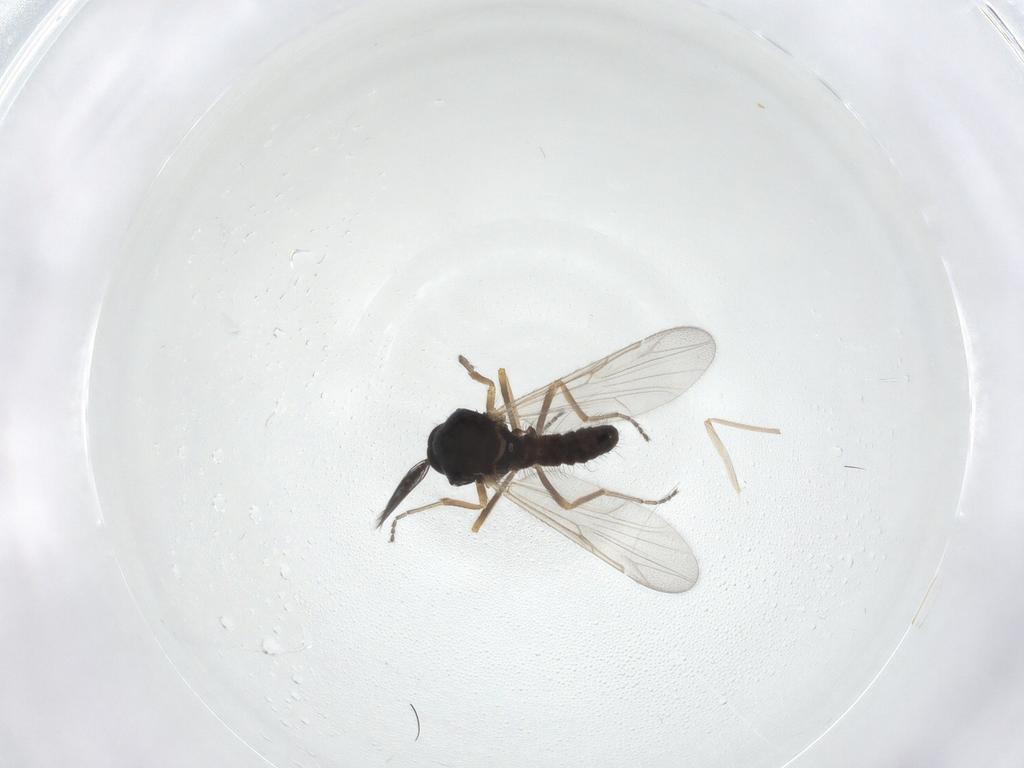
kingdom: Animalia
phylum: Arthropoda
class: Insecta
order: Diptera
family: Ceratopogonidae
